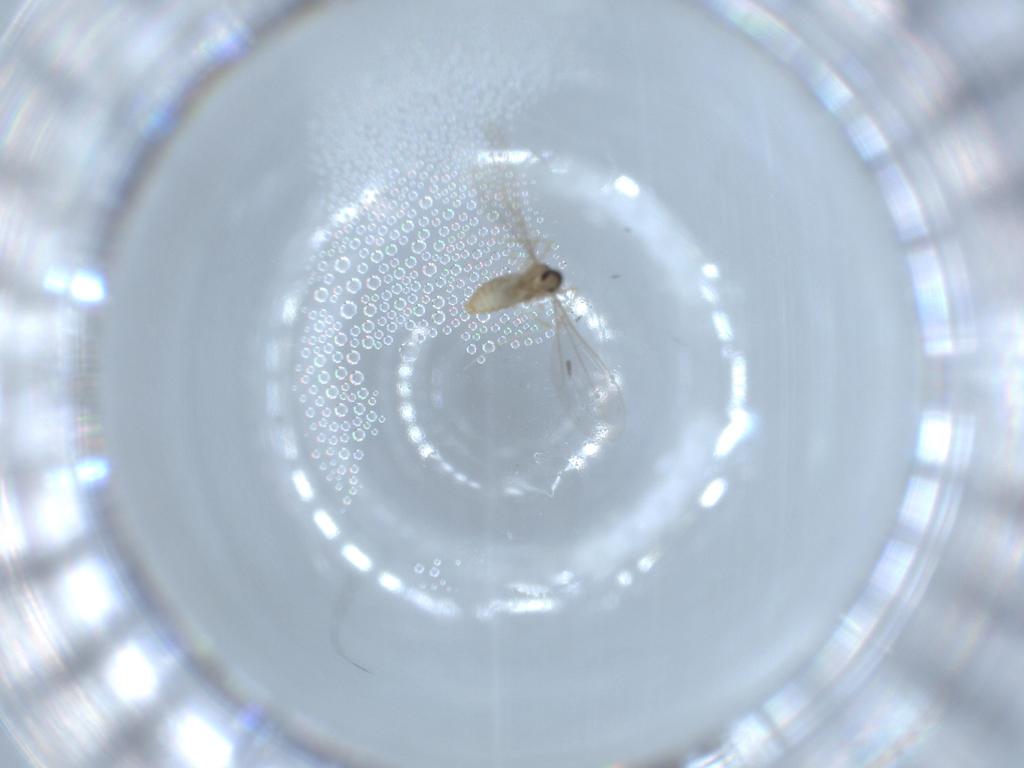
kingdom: Animalia
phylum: Arthropoda
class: Insecta
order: Diptera
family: Cecidomyiidae
